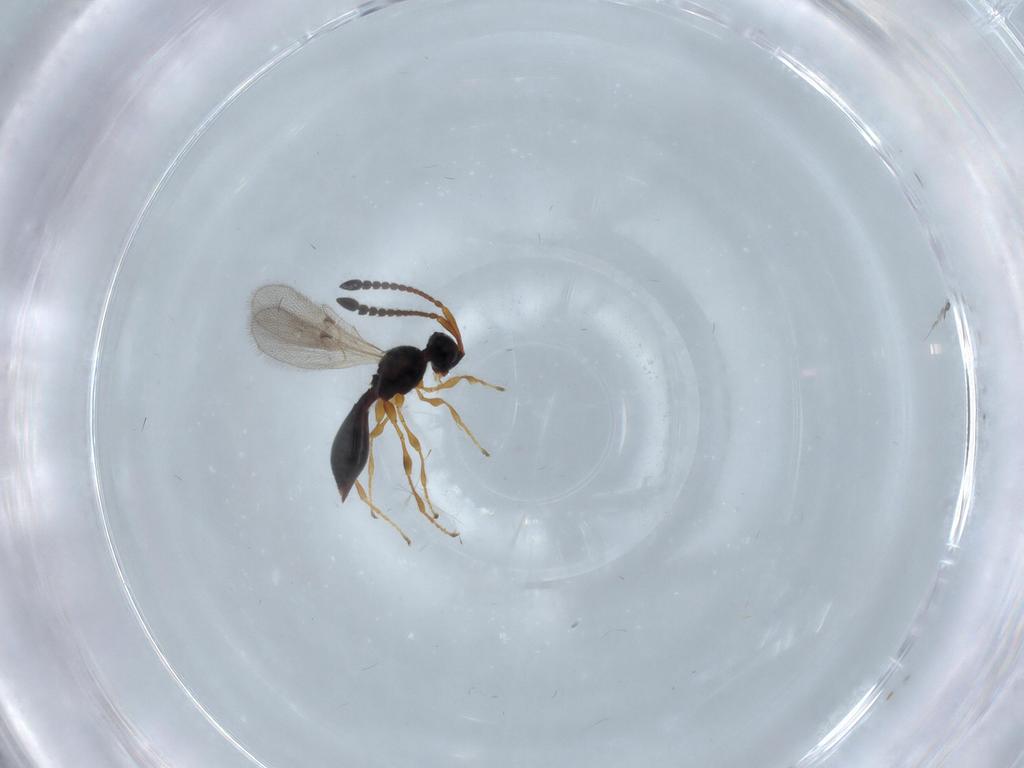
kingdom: Animalia
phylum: Arthropoda
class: Insecta
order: Hymenoptera
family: Diapriidae
